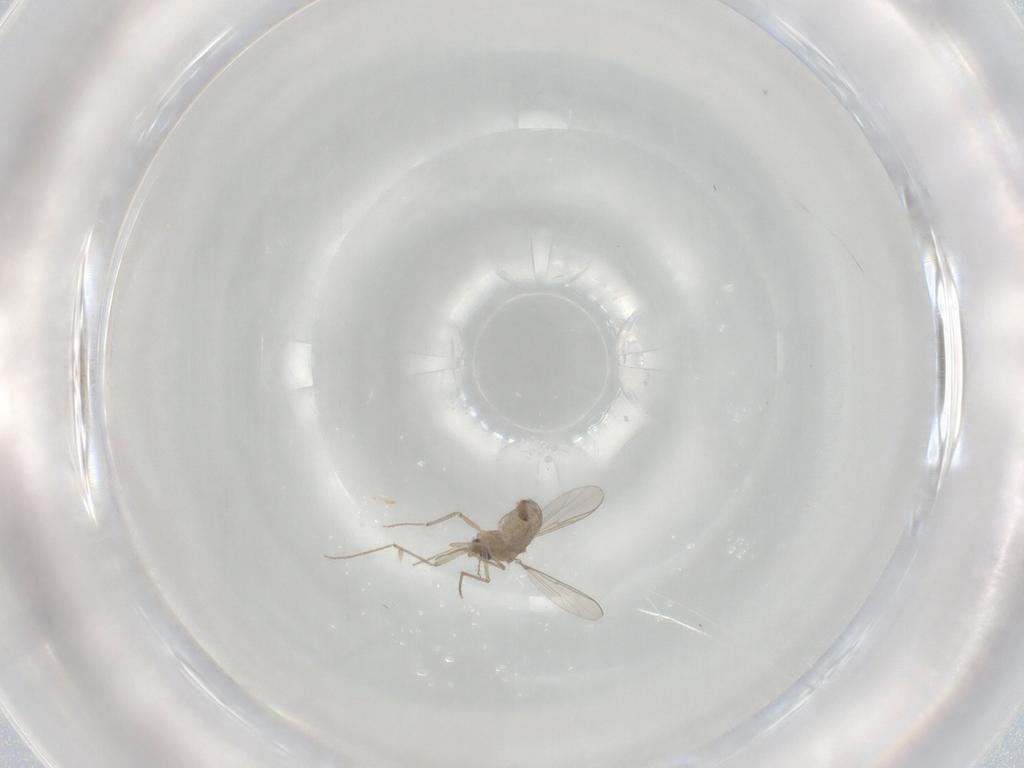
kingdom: Animalia
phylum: Arthropoda
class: Insecta
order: Diptera
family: Chironomidae
